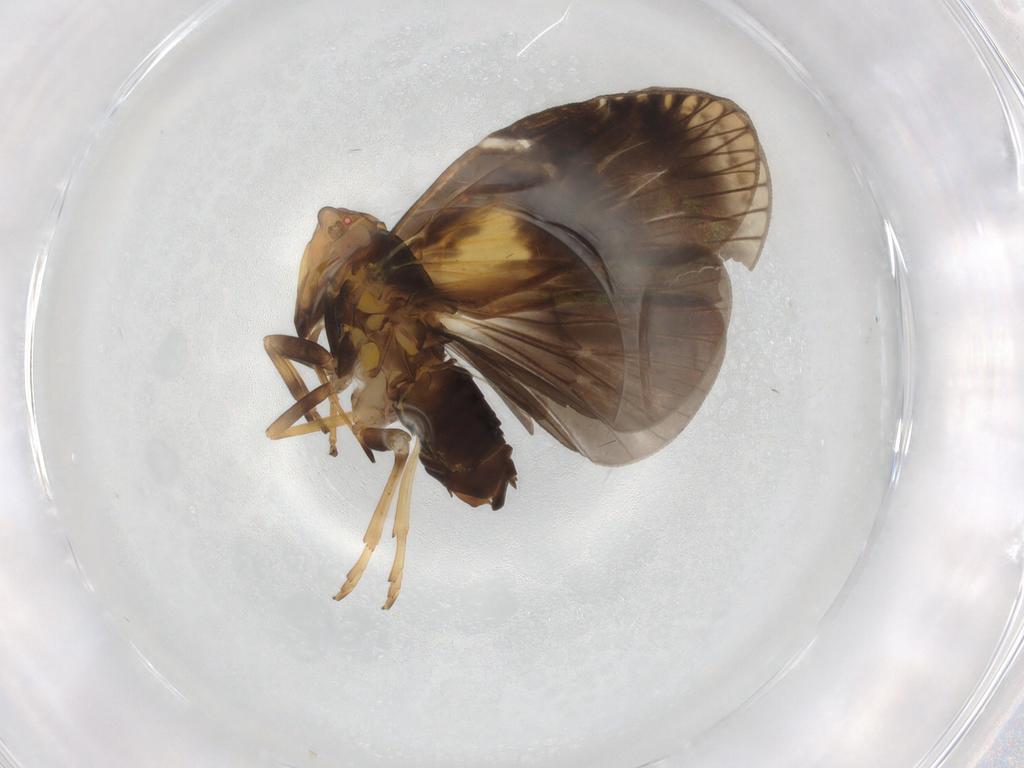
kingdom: Animalia
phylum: Arthropoda
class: Insecta
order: Hemiptera
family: Cixiidae
